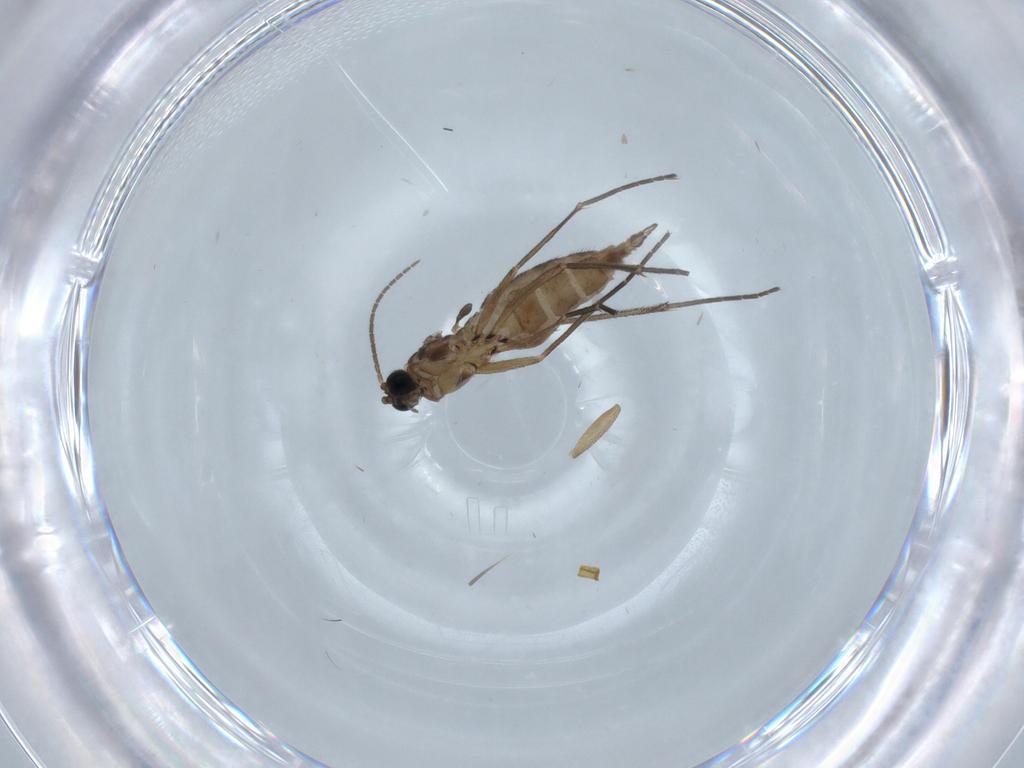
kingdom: Animalia
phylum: Arthropoda
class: Insecta
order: Diptera
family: Sciaridae
